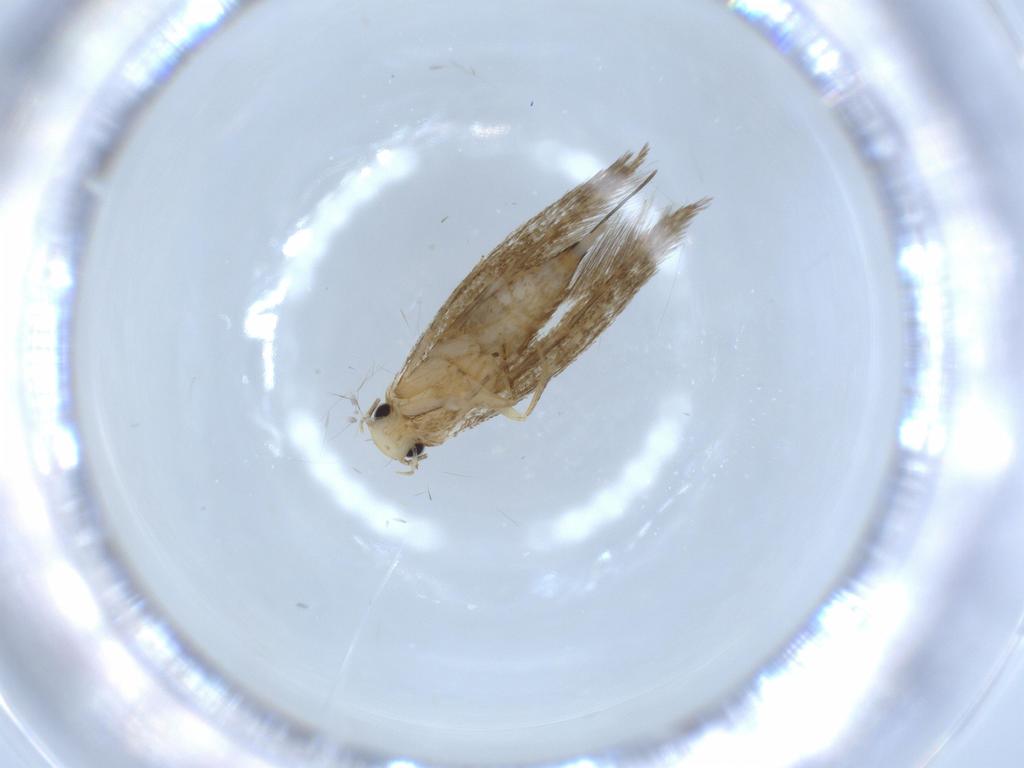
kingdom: Animalia
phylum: Arthropoda
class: Insecta
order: Lepidoptera
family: Tineidae
